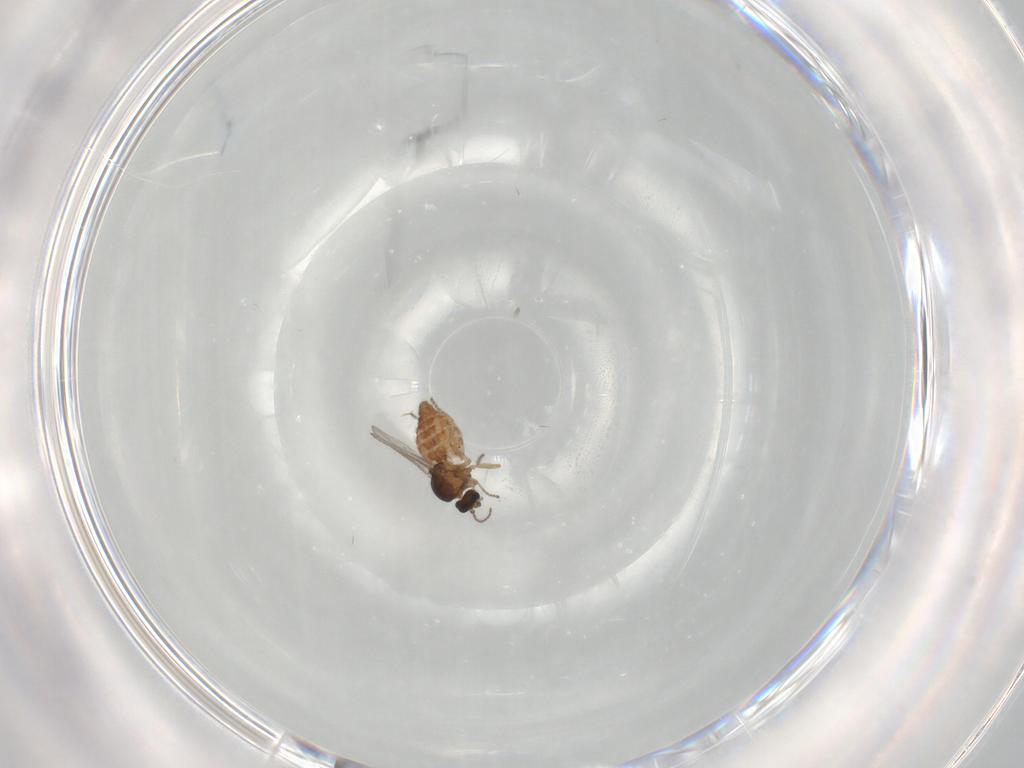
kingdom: Animalia
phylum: Arthropoda
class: Insecta
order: Diptera
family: Ceratopogonidae
